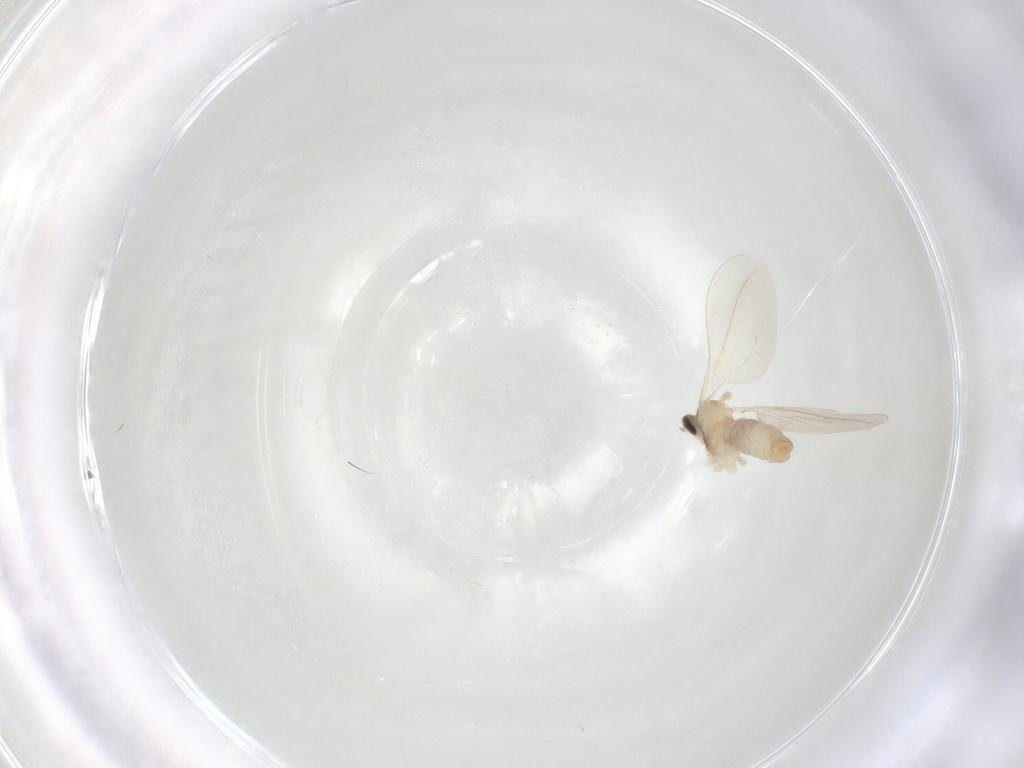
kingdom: Animalia
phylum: Arthropoda
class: Insecta
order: Diptera
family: Cecidomyiidae
